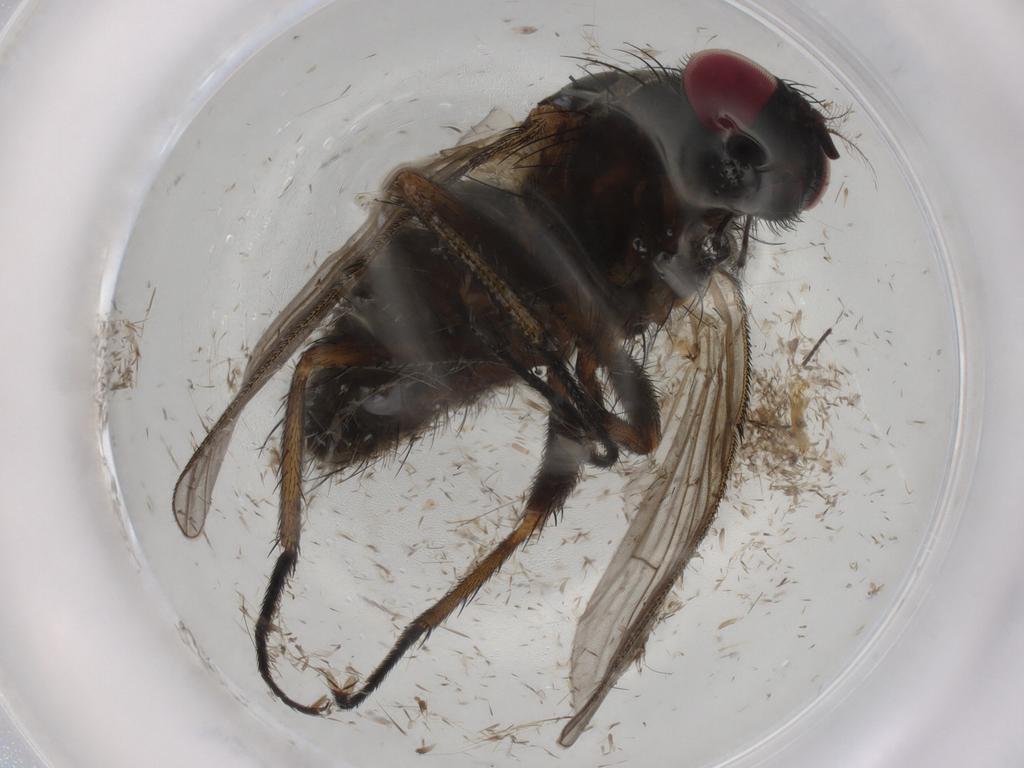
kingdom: Animalia
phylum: Arthropoda
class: Insecta
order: Diptera
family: Muscidae
